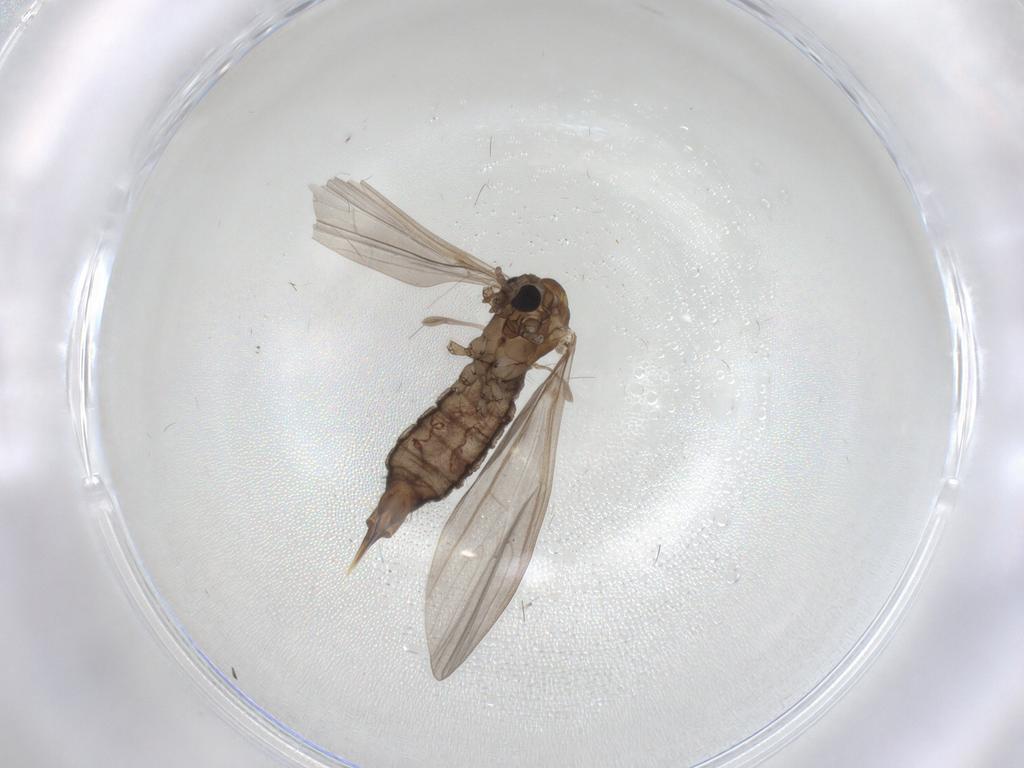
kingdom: Animalia
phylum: Arthropoda
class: Insecta
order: Diptera
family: Limoniidae
